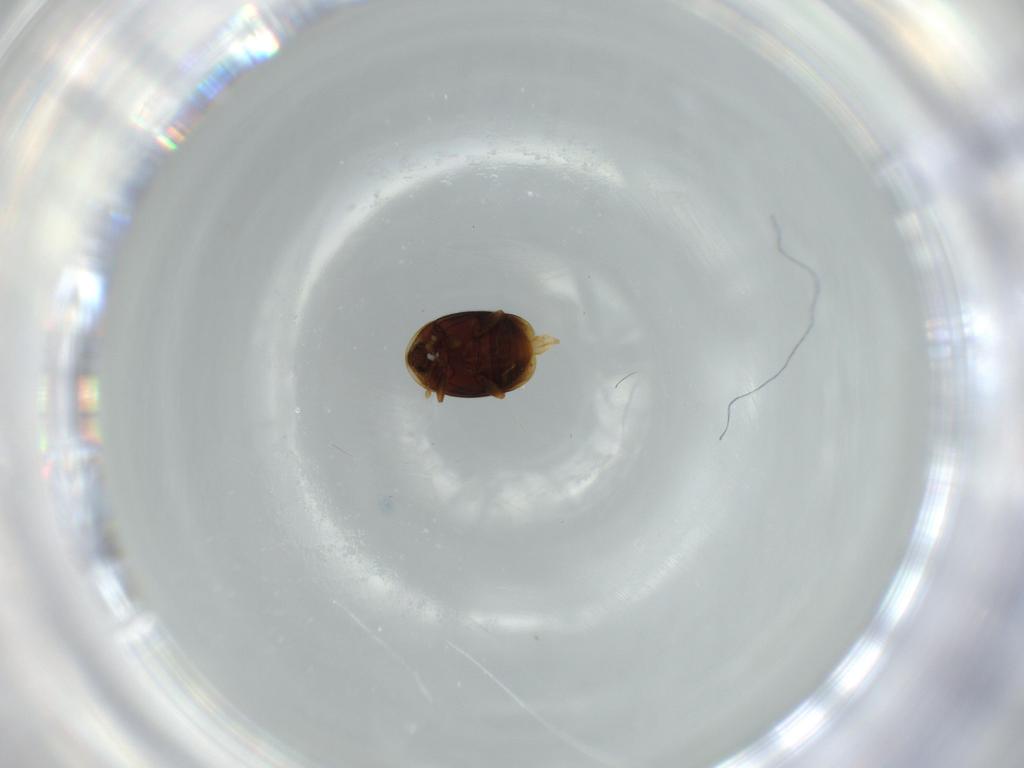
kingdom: Animalia
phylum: Arthropoda
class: Insecta
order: Coleoptera
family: Corylophidae
